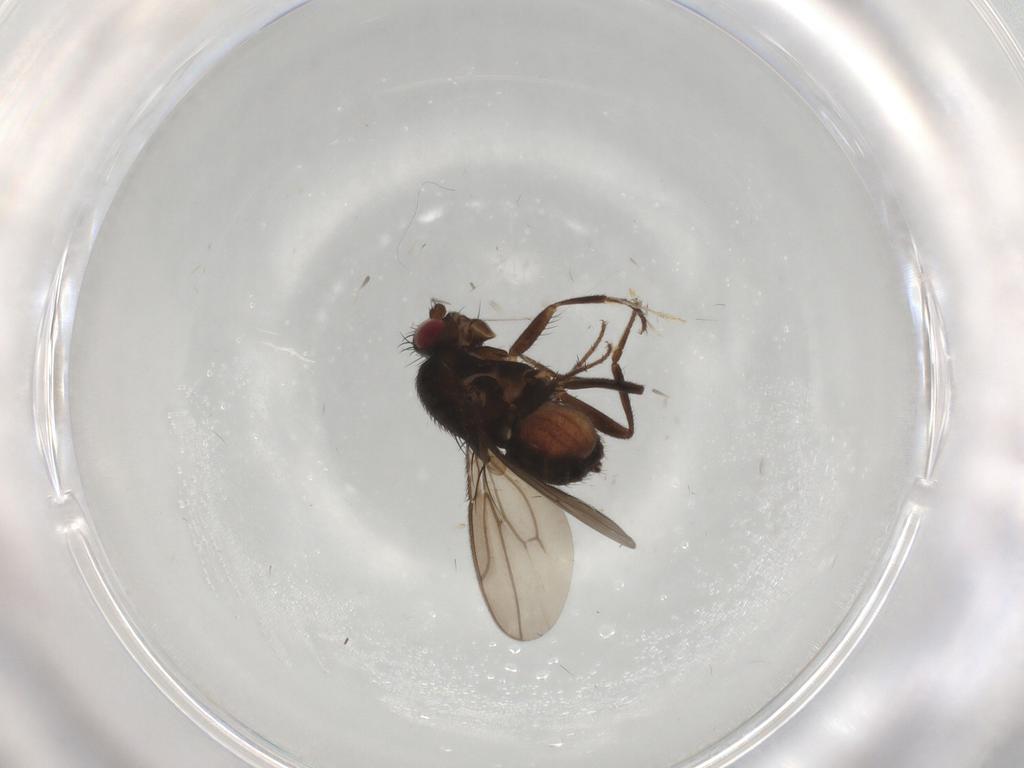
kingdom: Animalia
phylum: Arthropoda
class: Insecta
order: Diptera
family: Sphaeroceridae
